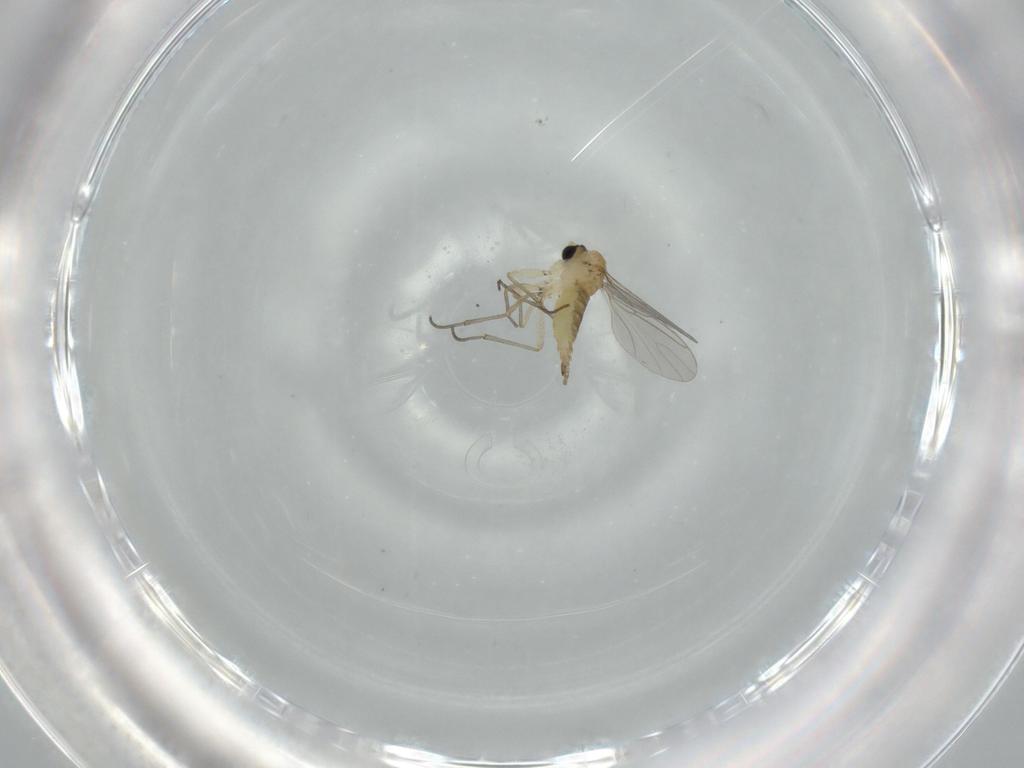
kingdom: Animalia
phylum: Arthropoda
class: Insecta
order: Diptera
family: Sciaridae
